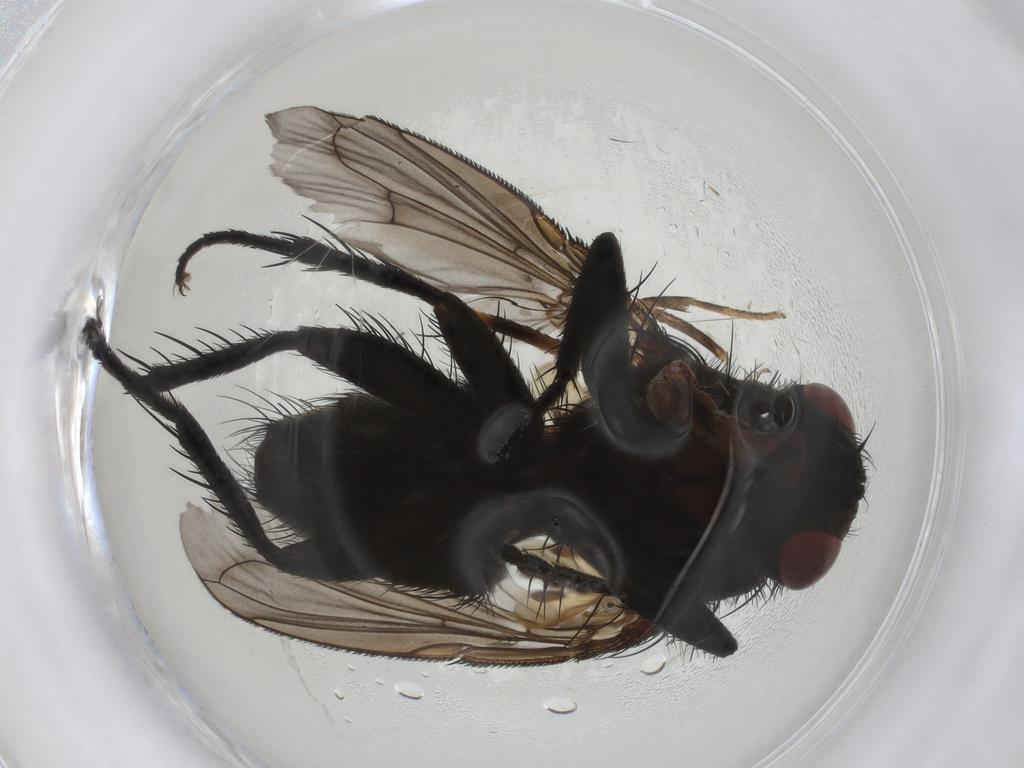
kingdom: Animalia
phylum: Arthropoda
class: Insecta
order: Diptera
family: Tachinidae
